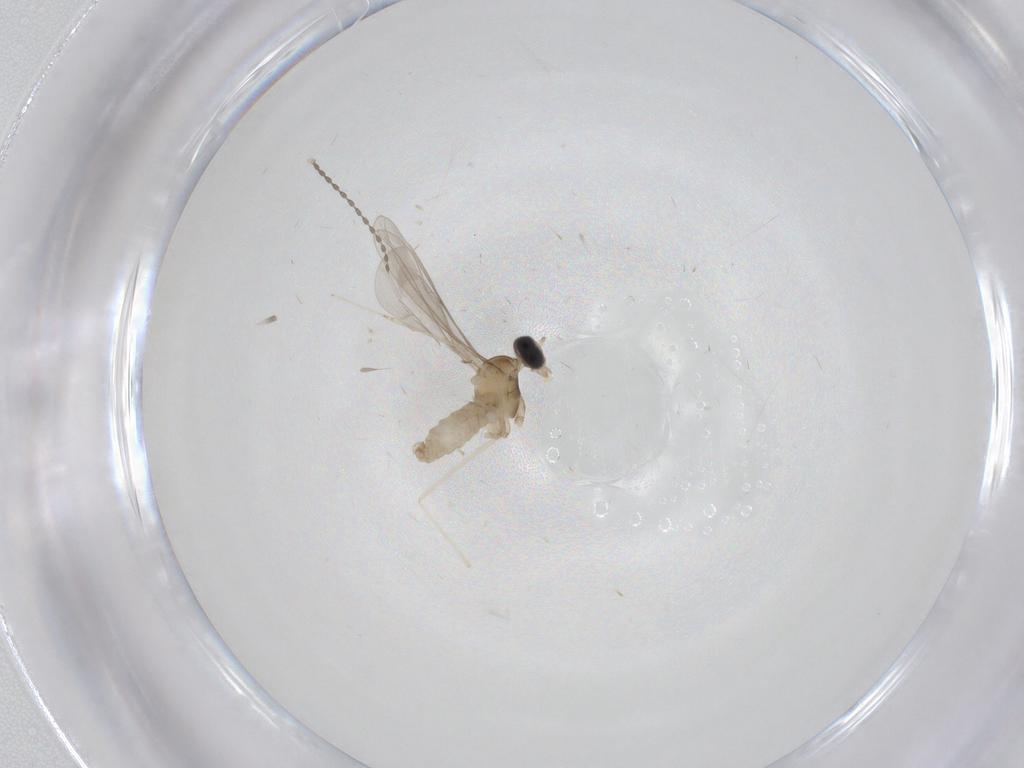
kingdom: Animalia
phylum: Arthropoda
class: Insecta
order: Diptera
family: Cecidomyiidae
